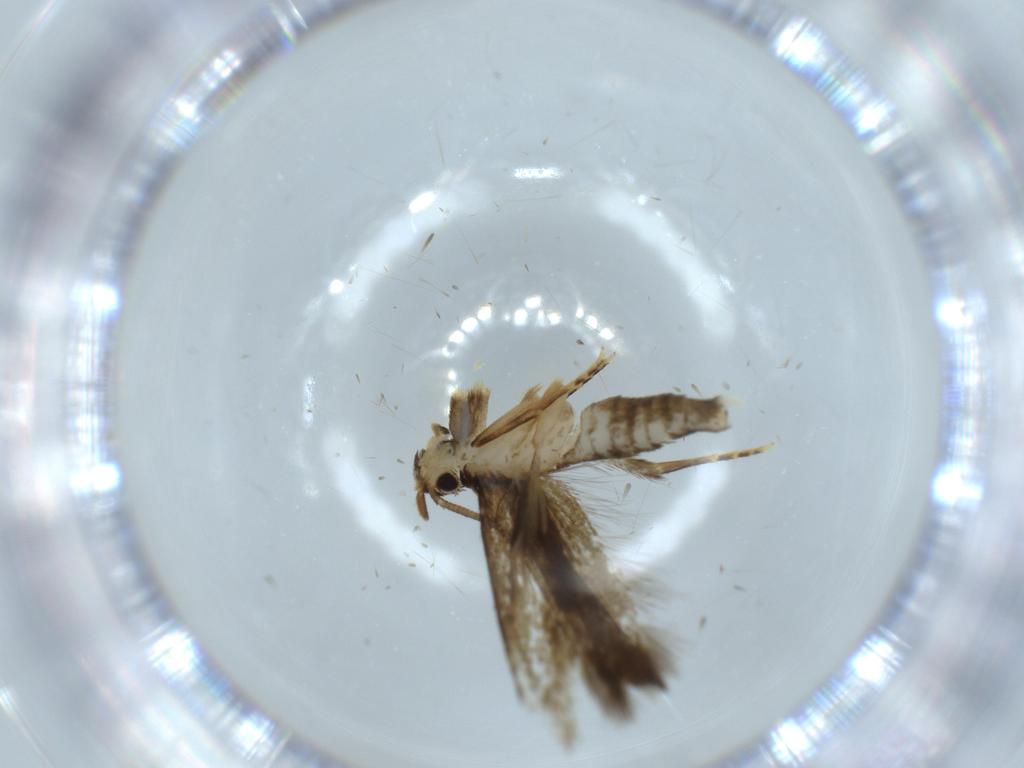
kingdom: Animalia
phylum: Arthropoda
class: Insecta
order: Lepidoptera
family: Tineidae
